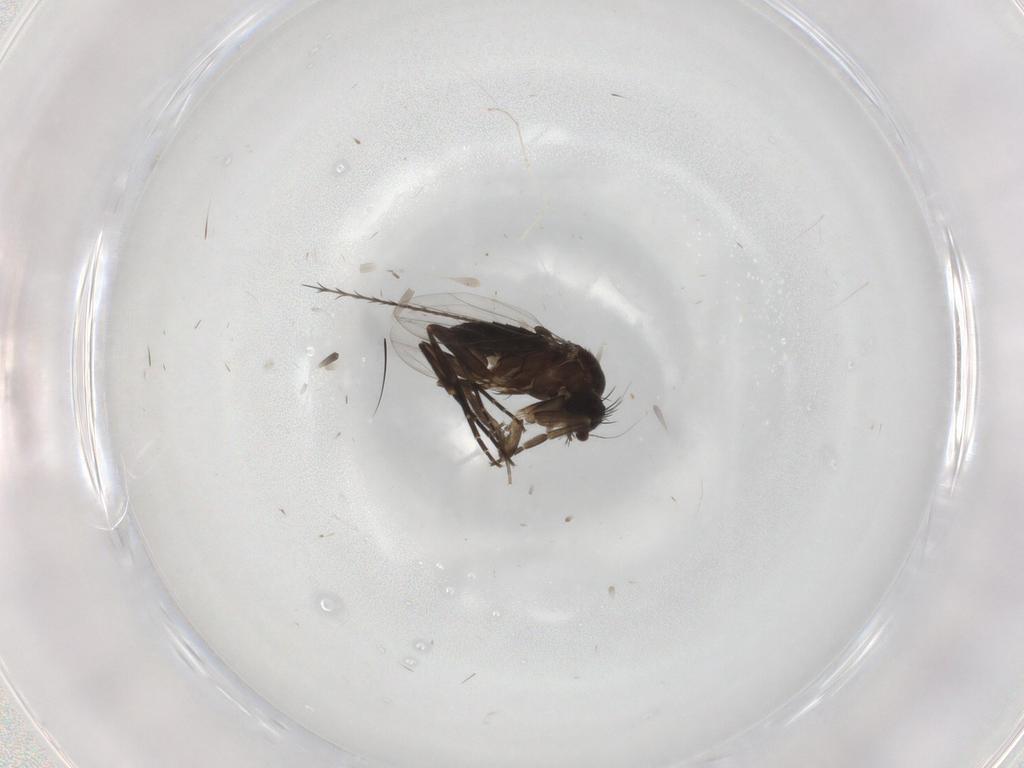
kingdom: Animalia
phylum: Arthropoda
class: Insecta
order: Diptera
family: Phoridae
